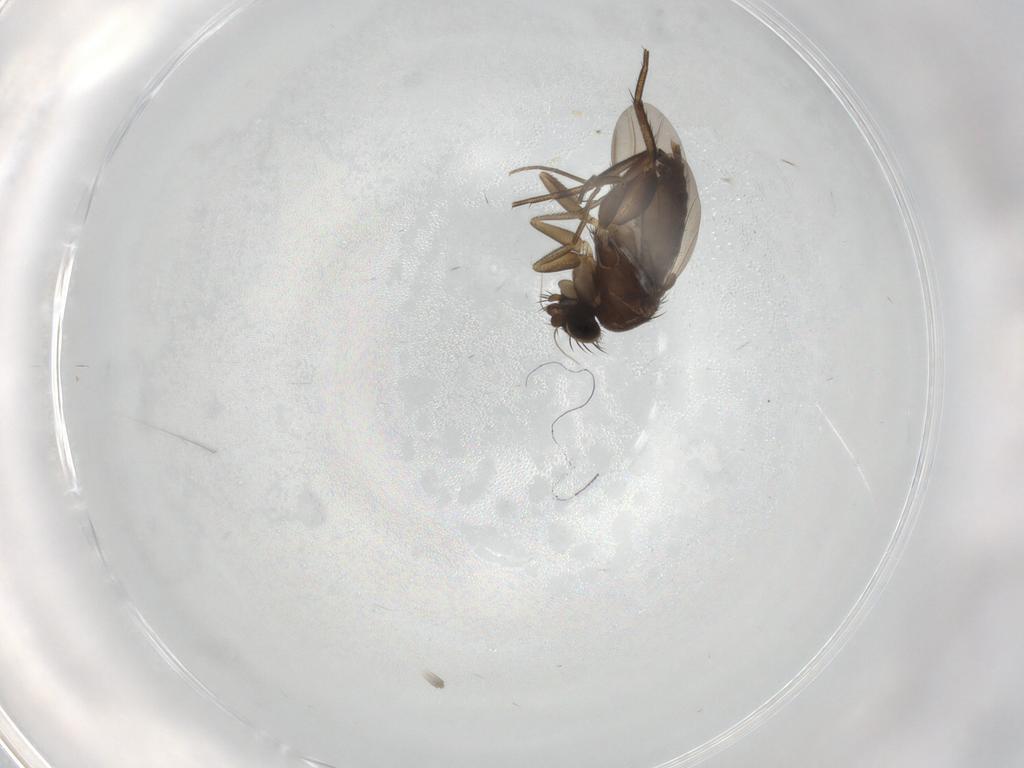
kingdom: Animalia
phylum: Arthropoda
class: Insecta
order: Diptera
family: Phoridae
